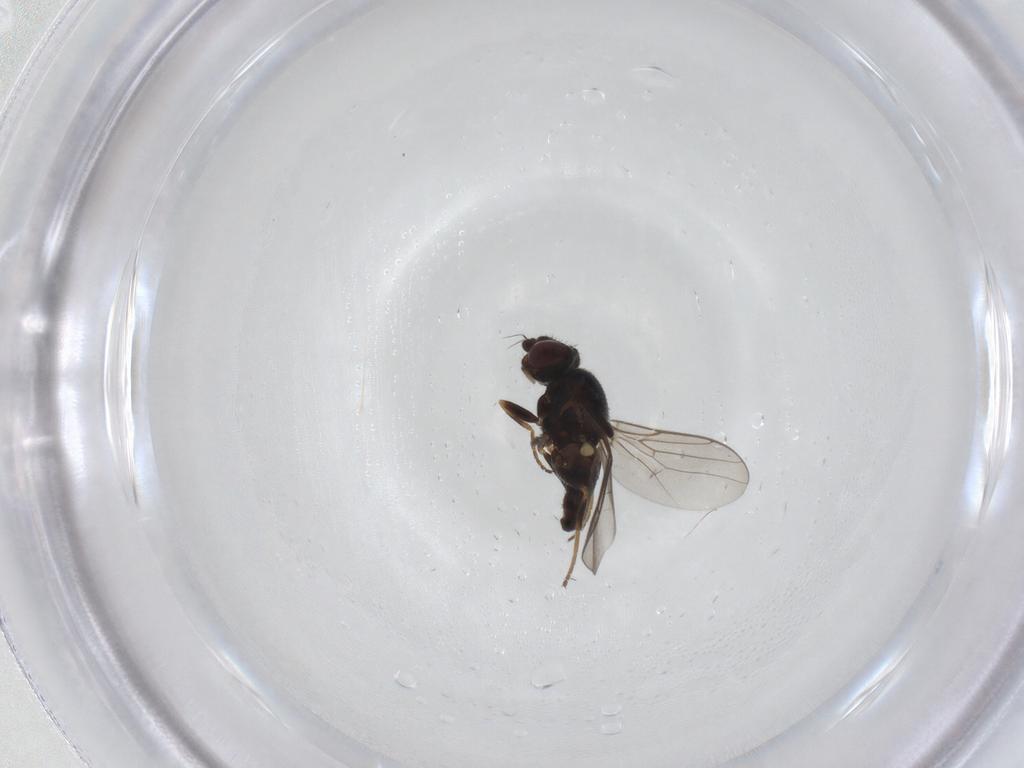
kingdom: Animalia
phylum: Arthropoda
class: Insecta
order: Diptera
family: Chloropidae
